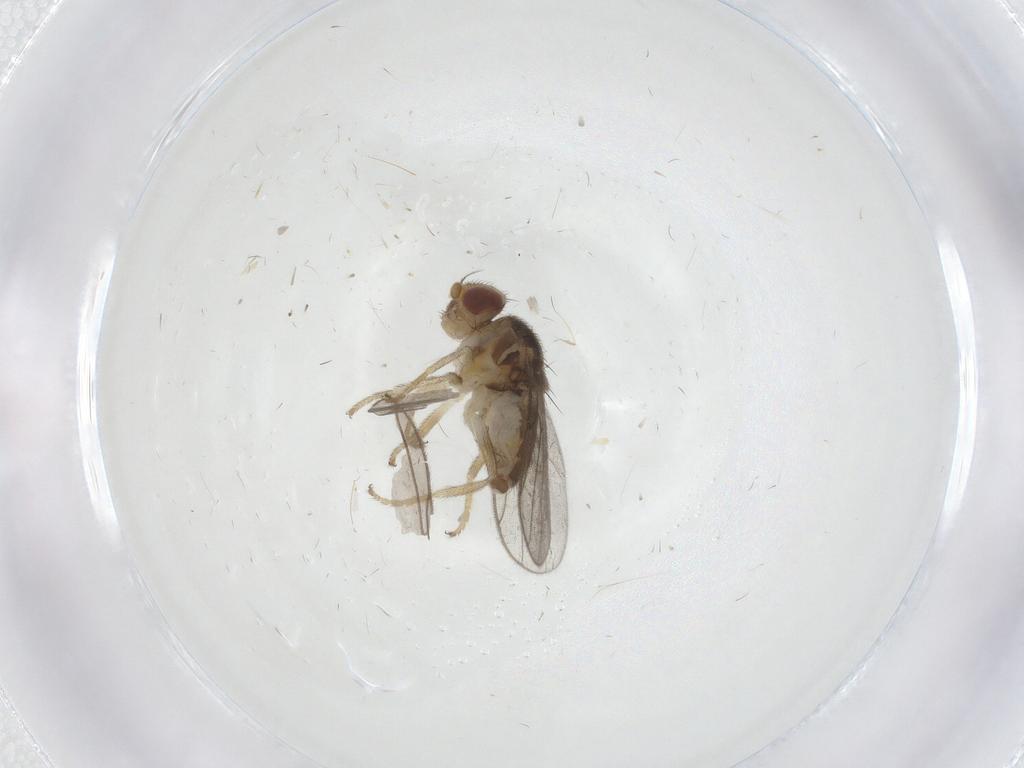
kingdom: Animalia
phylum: Arthropoda
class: Insecta
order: Diptera
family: Chloropidae
